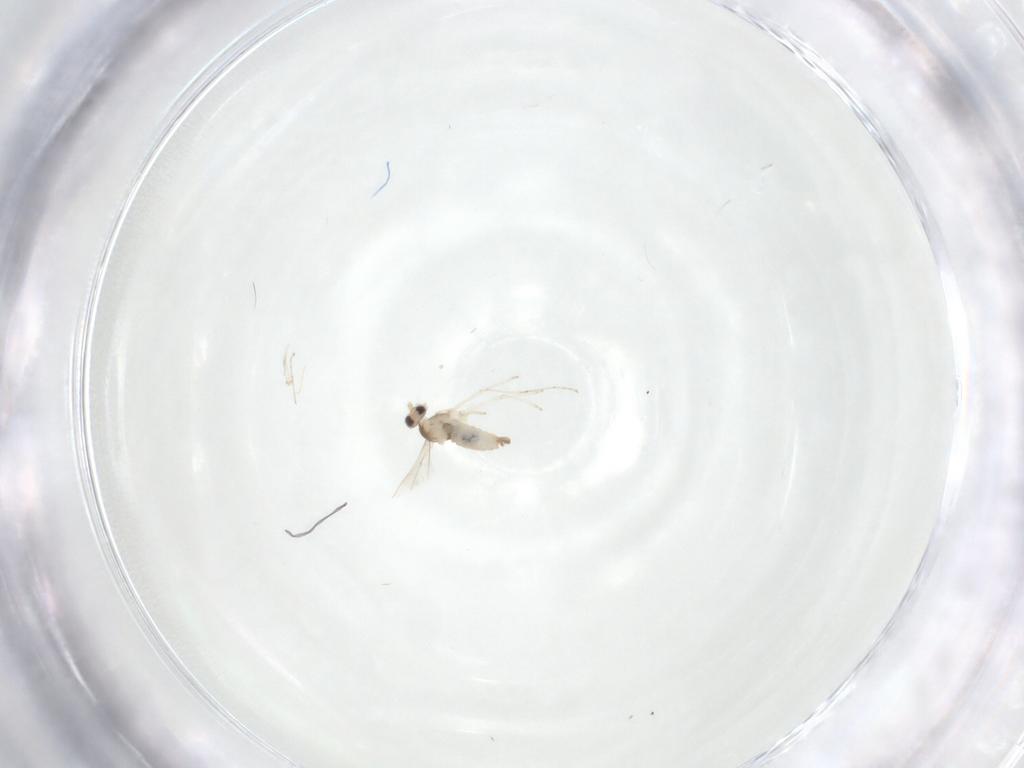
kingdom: Animalia
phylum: Arthropoda
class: Insecta
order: Diptera
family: Cecidomyiidae
